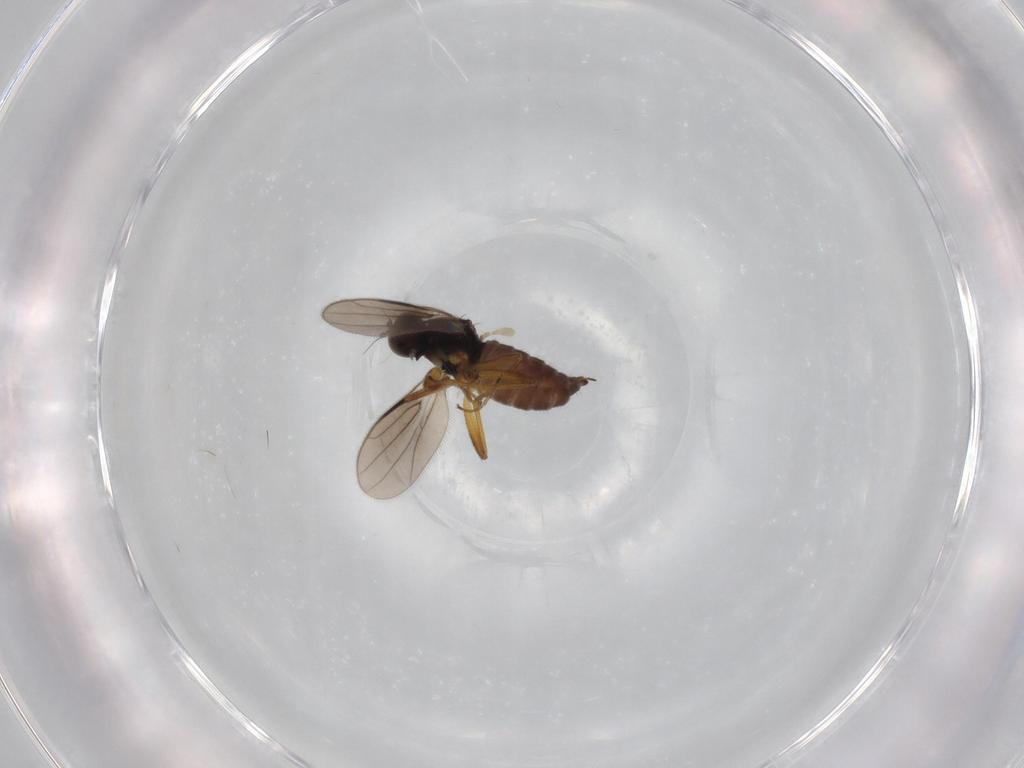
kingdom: Animalia
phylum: Arthropoda
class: Insecta
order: Diptera
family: Hybotidae
